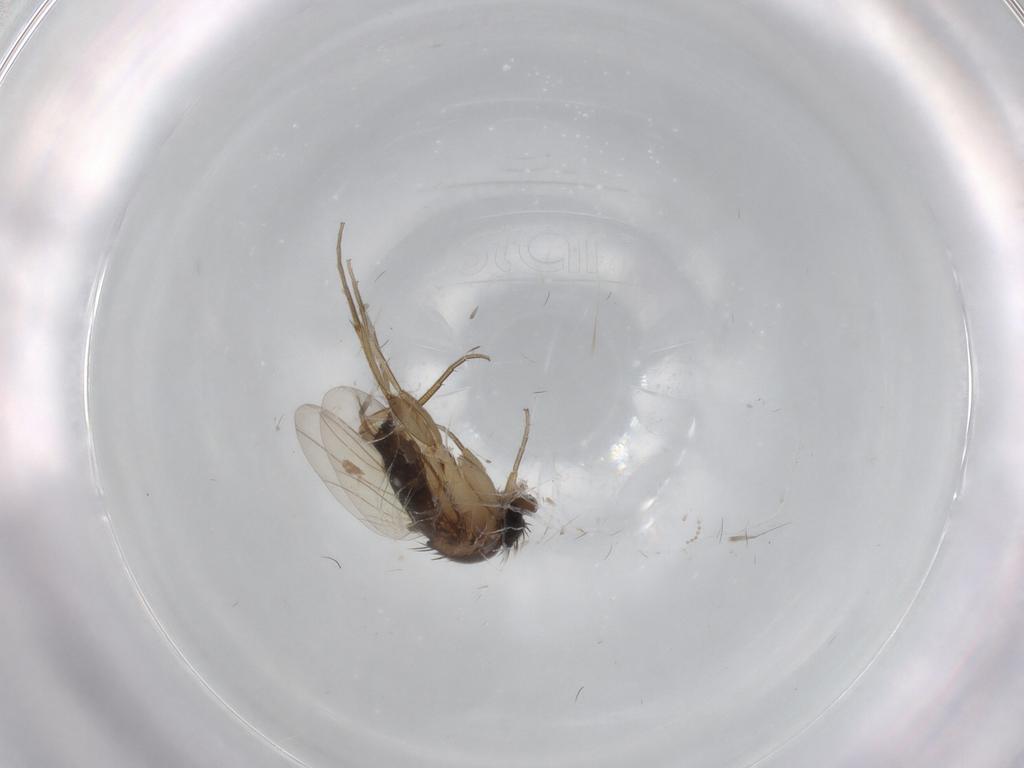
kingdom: Animalia
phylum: Arthropoda
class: Insecta
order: Diptera
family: Phoridae
